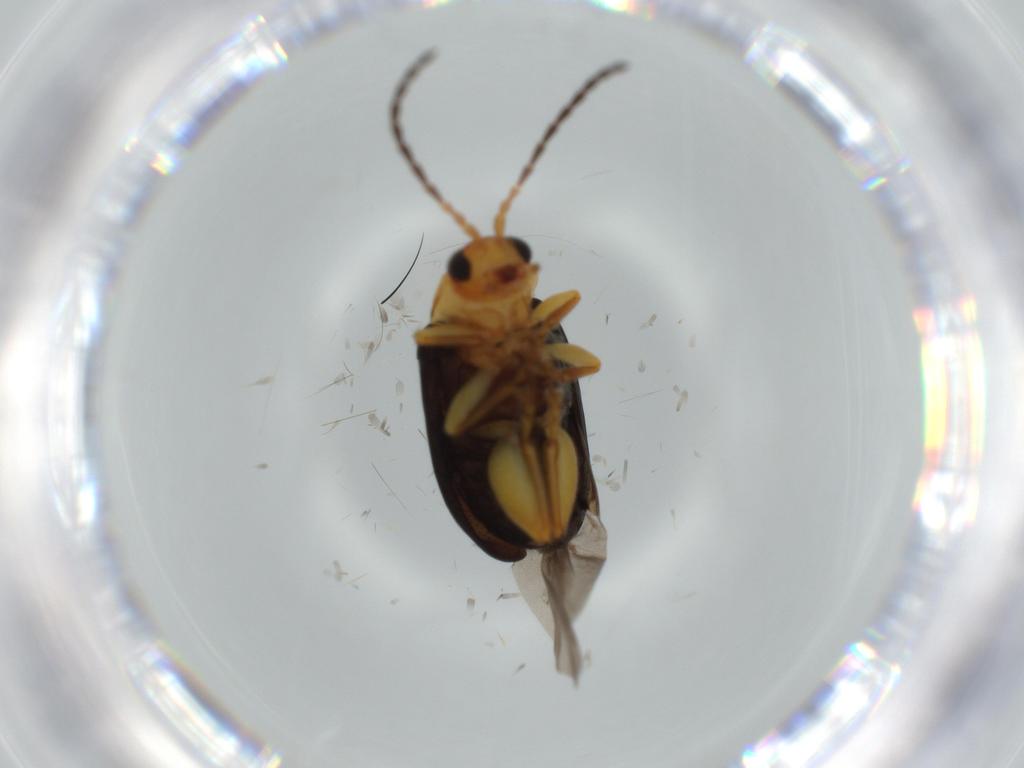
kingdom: Animalia
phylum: Arthropoda
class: Insecta
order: Coleoptera
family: Chrysomelidae
